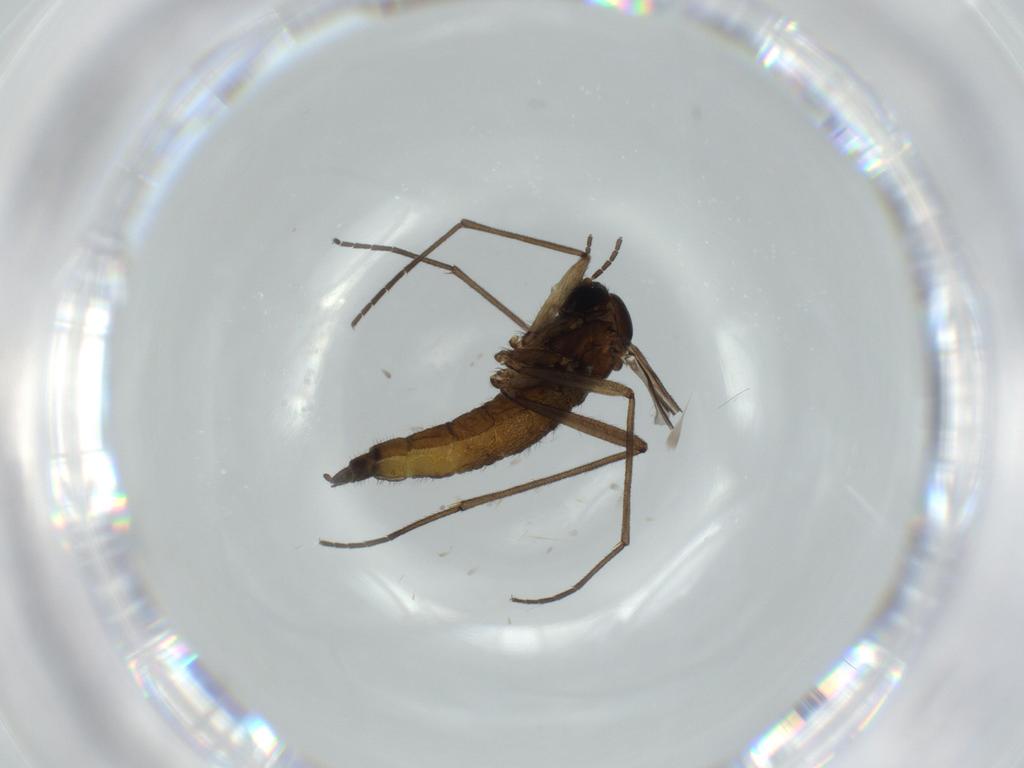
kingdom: Animalia
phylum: Arthropoda
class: Insecta
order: Diptera
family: Sciaridae
